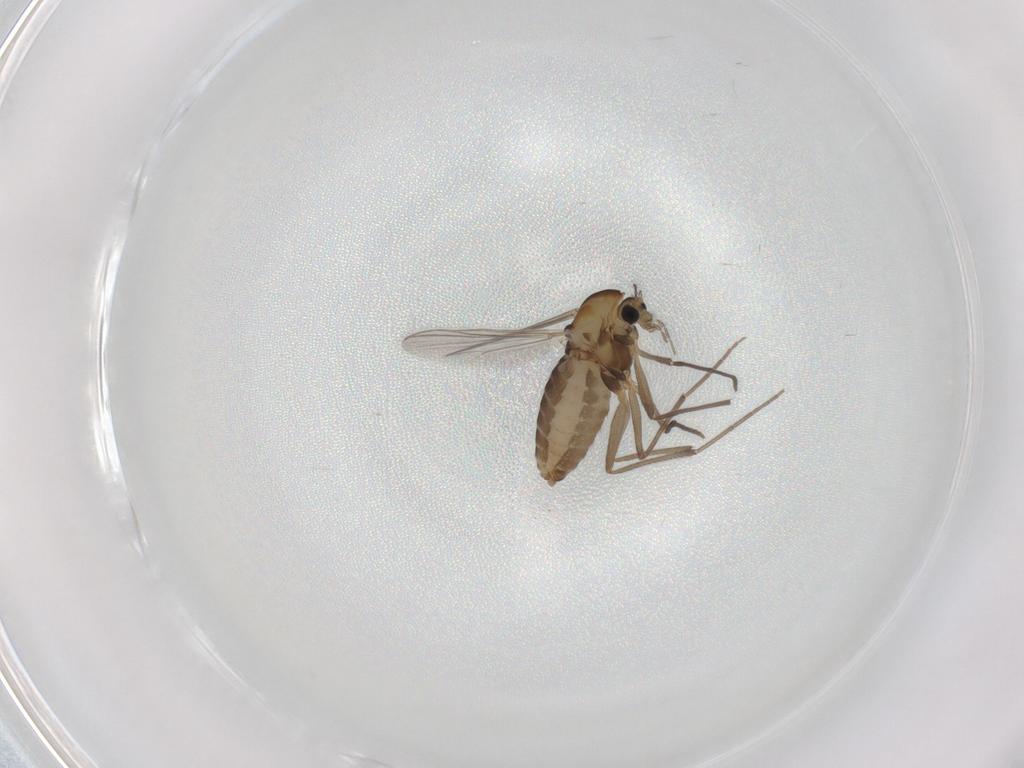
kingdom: Animalia
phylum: Arthropoda
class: Insecta
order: Diptera
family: Chironomidae
